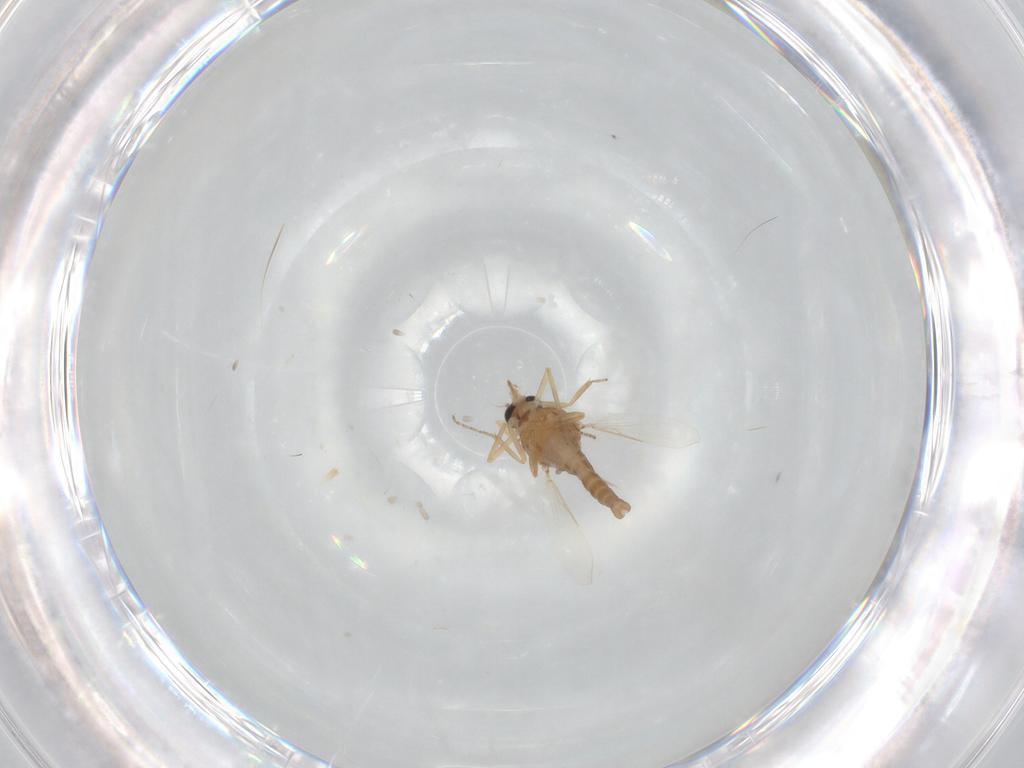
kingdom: Animalia
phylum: Arthropoda
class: Insecta
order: Diptera
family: Ceratopogonidae
